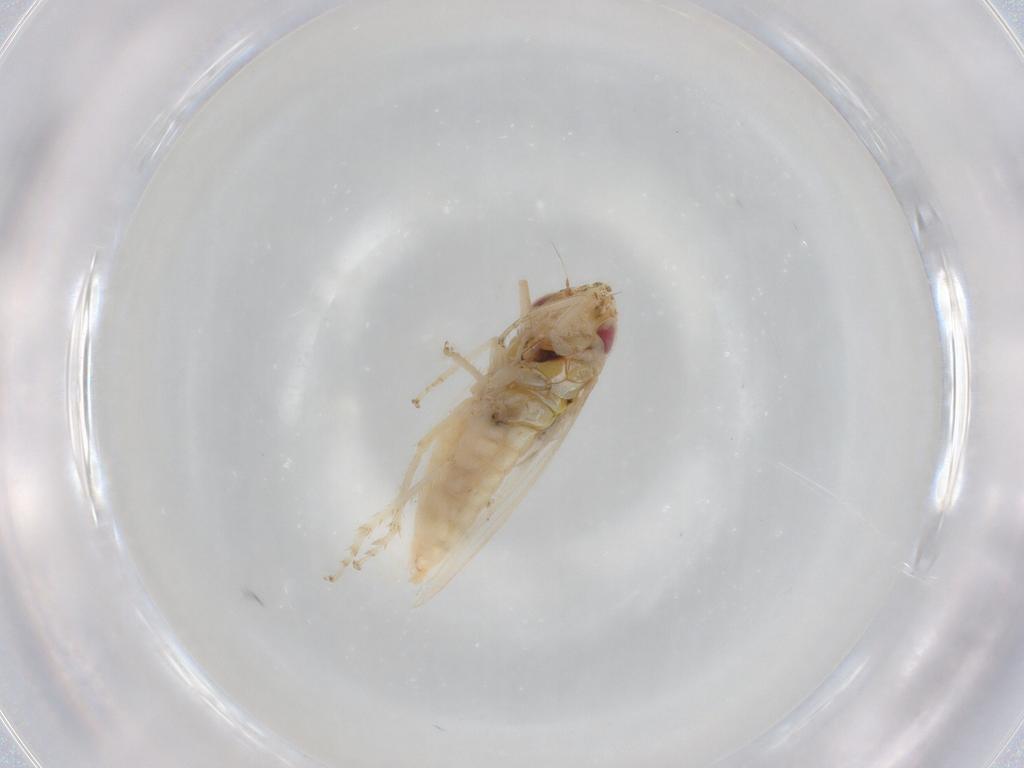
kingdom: Animalia
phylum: Arthropoda
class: Insecta
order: Hemiptera
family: Cicadellidae
